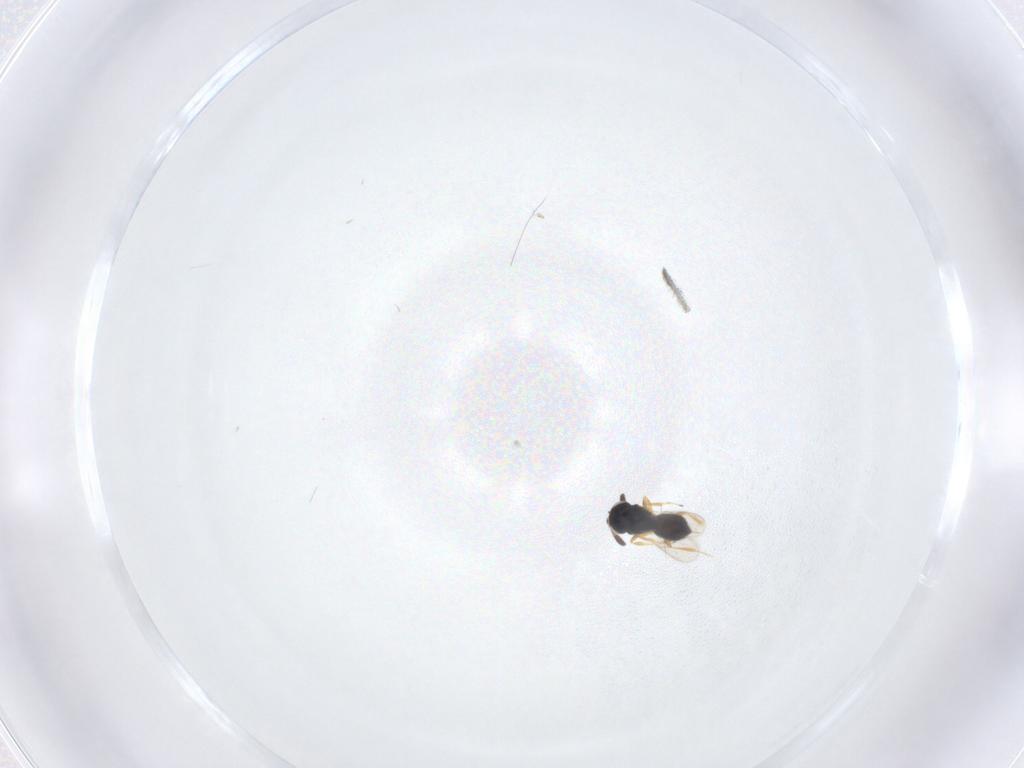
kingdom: Animalia
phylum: Arthropoda
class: Insecta
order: Hymenoptera
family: Scelionidae
